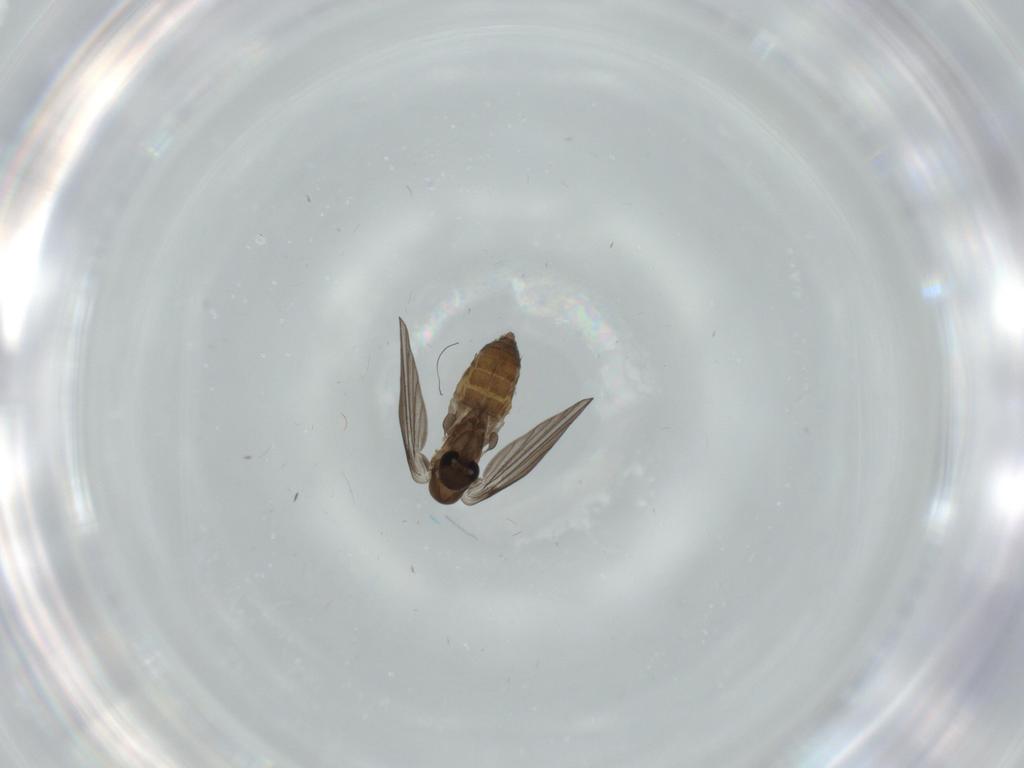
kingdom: Animalia
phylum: Arthropoda
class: Insecta
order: Diptera
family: Psychodidae
